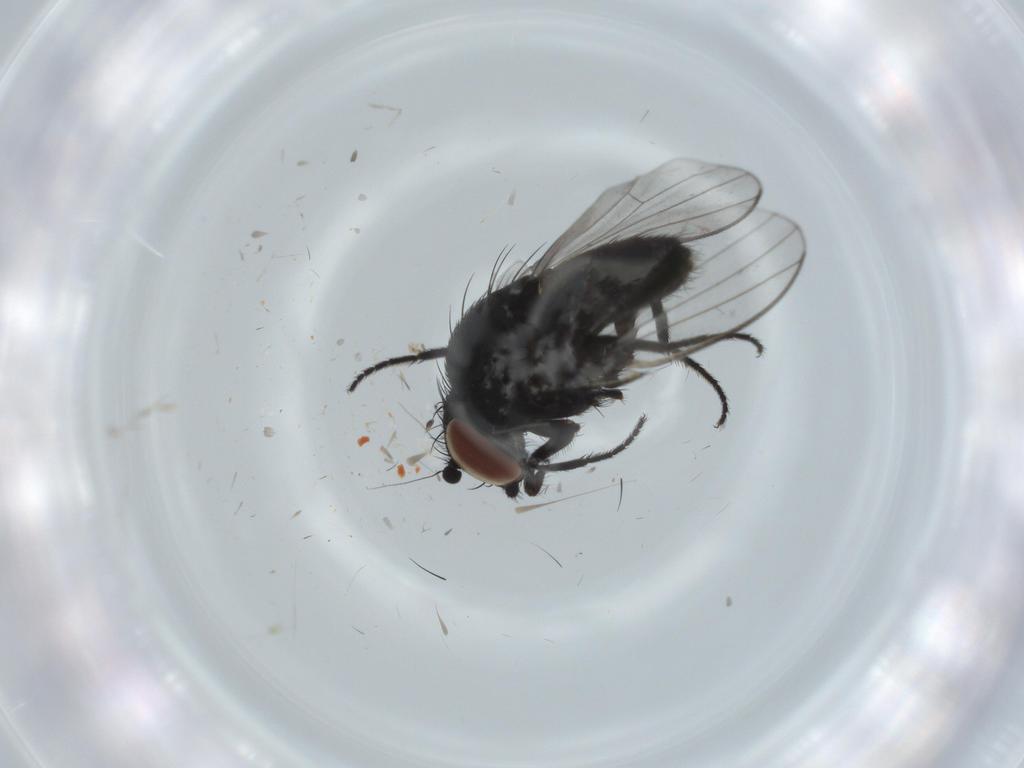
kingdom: Animalia
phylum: Arthropoda
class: Insecta
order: Diptera
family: Milichiidae
